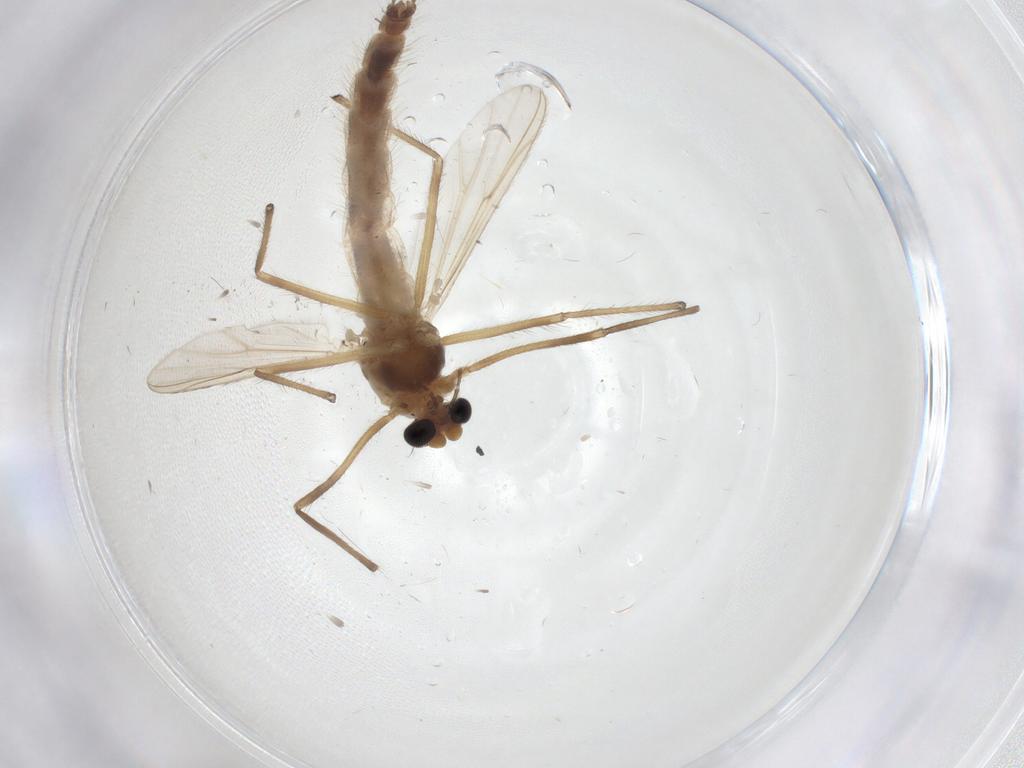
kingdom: Animalia
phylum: Arthropoda
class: Insecta
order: Diptera
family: Chironomidae
